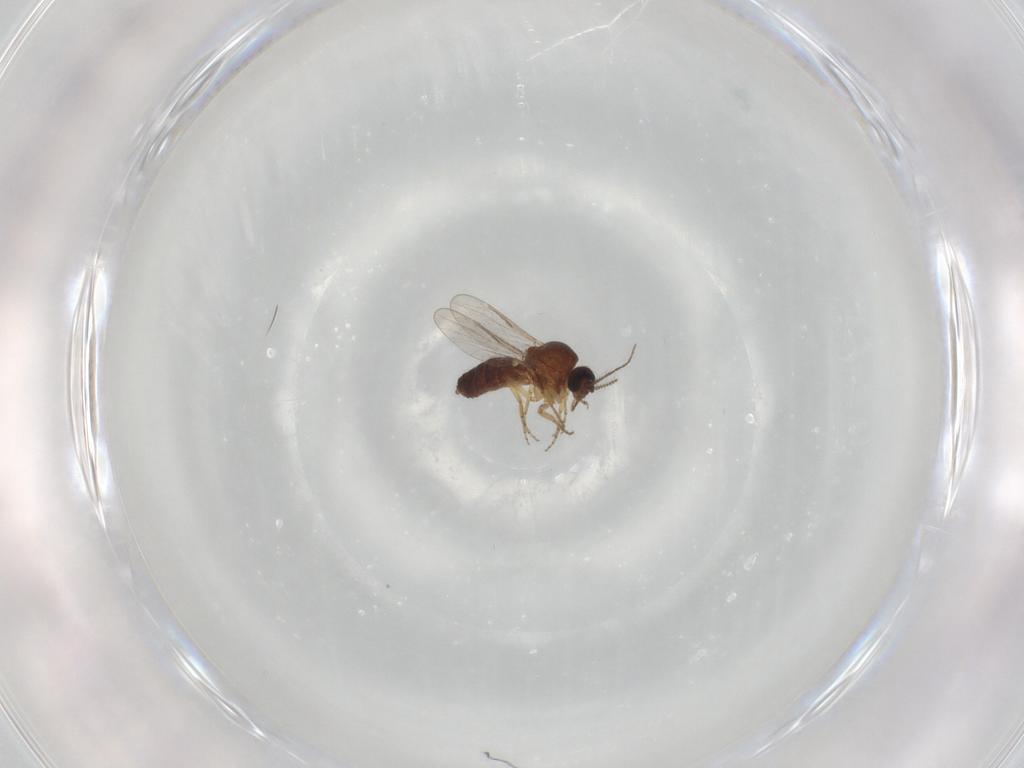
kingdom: Animalia
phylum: Arthropoda
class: Insecta
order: Diptera
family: Ceratopogonidae
